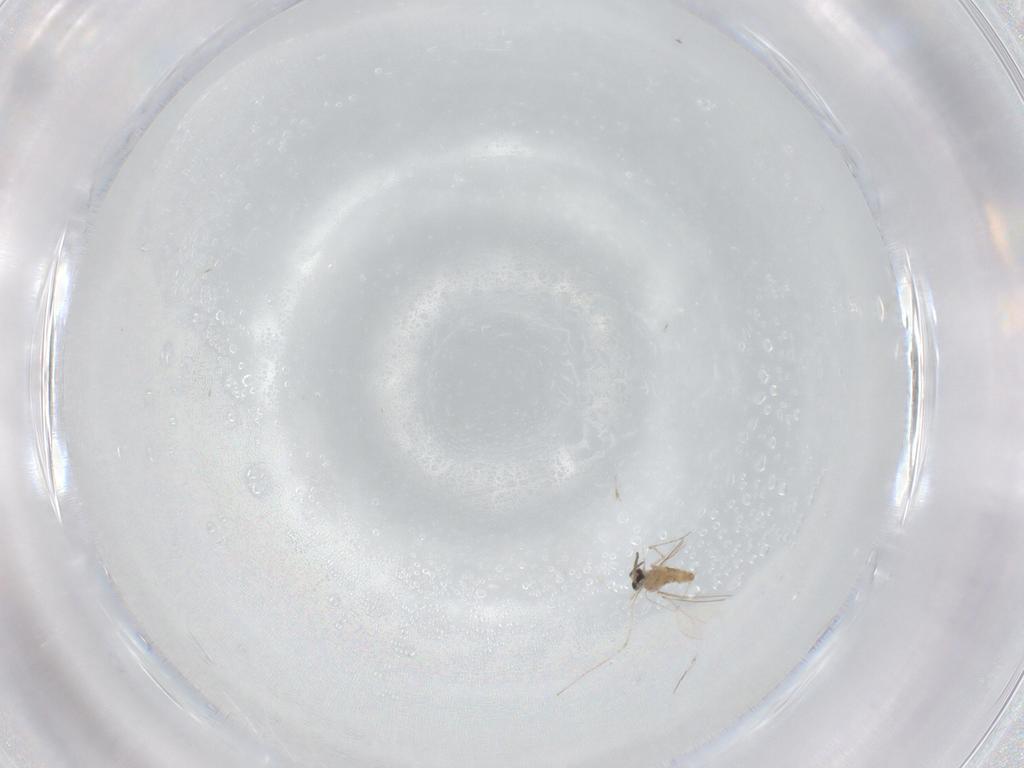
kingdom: Animalia
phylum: Arthropoda
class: Insecta
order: Diptera
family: Cecidomyiidae
